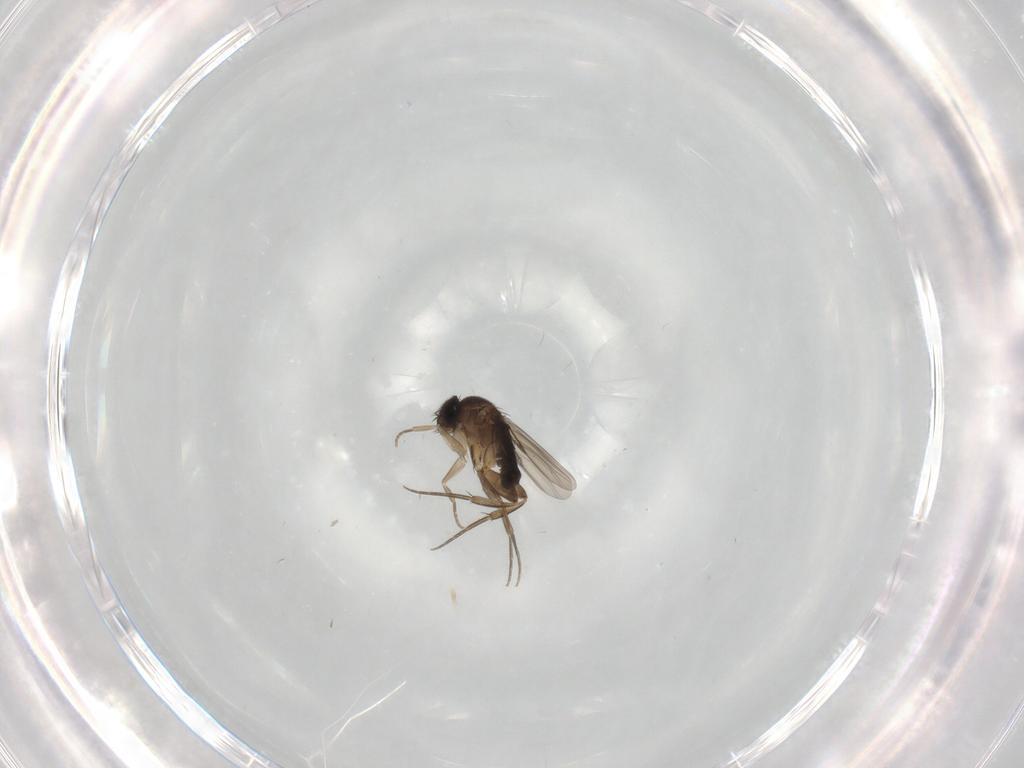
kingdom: Animalia
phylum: Arthropoda
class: Insecta
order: Diptera
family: Ceratopogonidae
